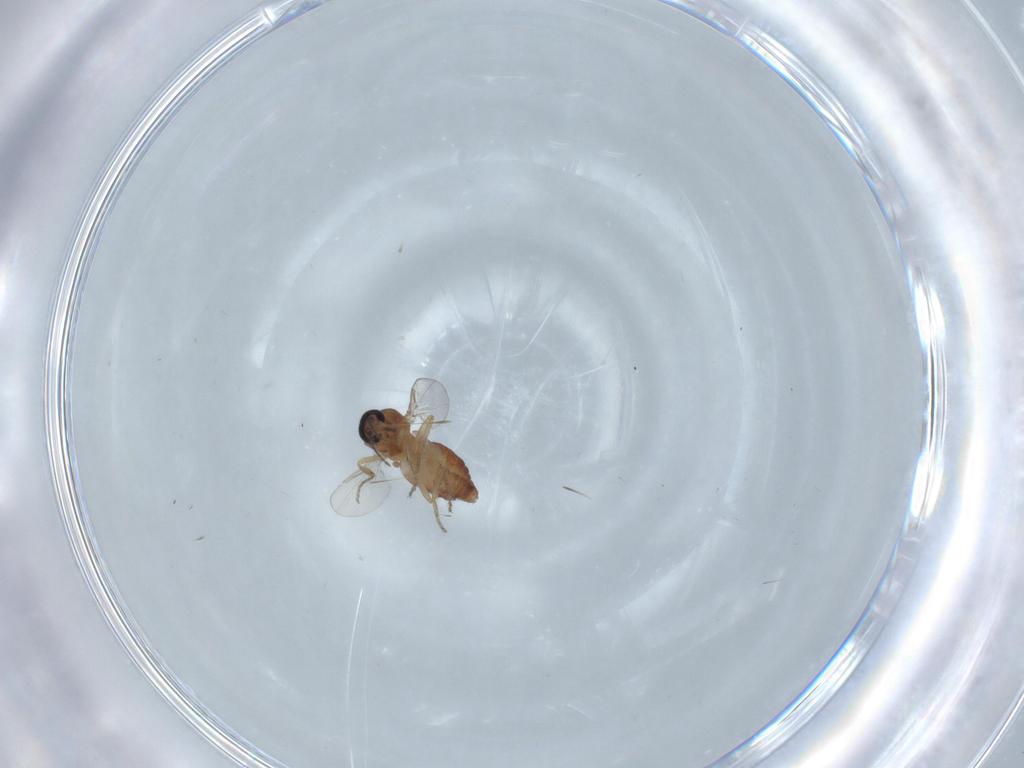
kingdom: Animalia
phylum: Arthropoda
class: Insecta
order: Diptera
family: Ceratopogonidae
